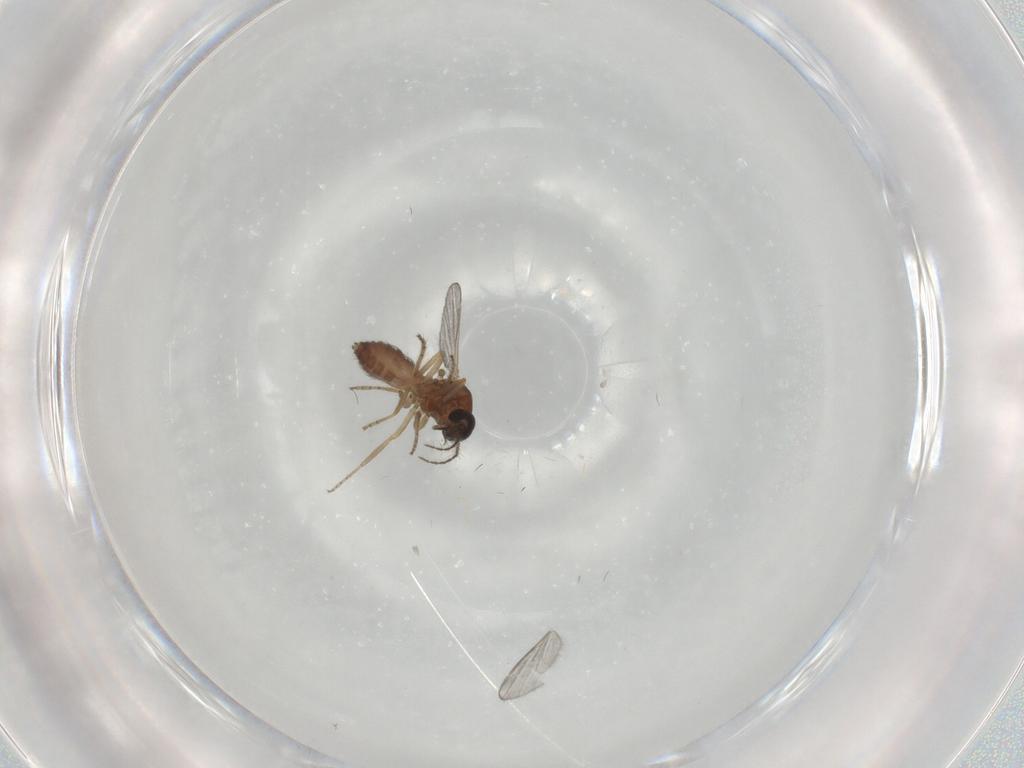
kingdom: Animalia
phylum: Arthropoda
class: Insecta
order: Diptera
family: Ceratopogonidae
